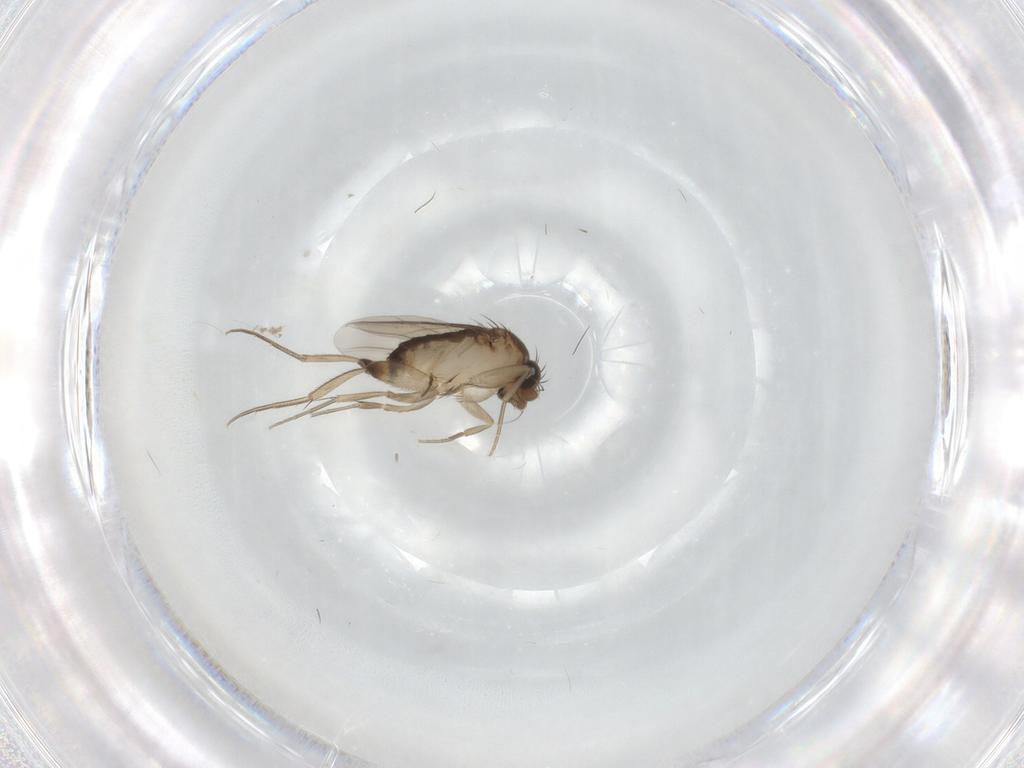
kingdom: Animalia
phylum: Arthropoda
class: Insecta
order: Diptera
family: Phoridae
